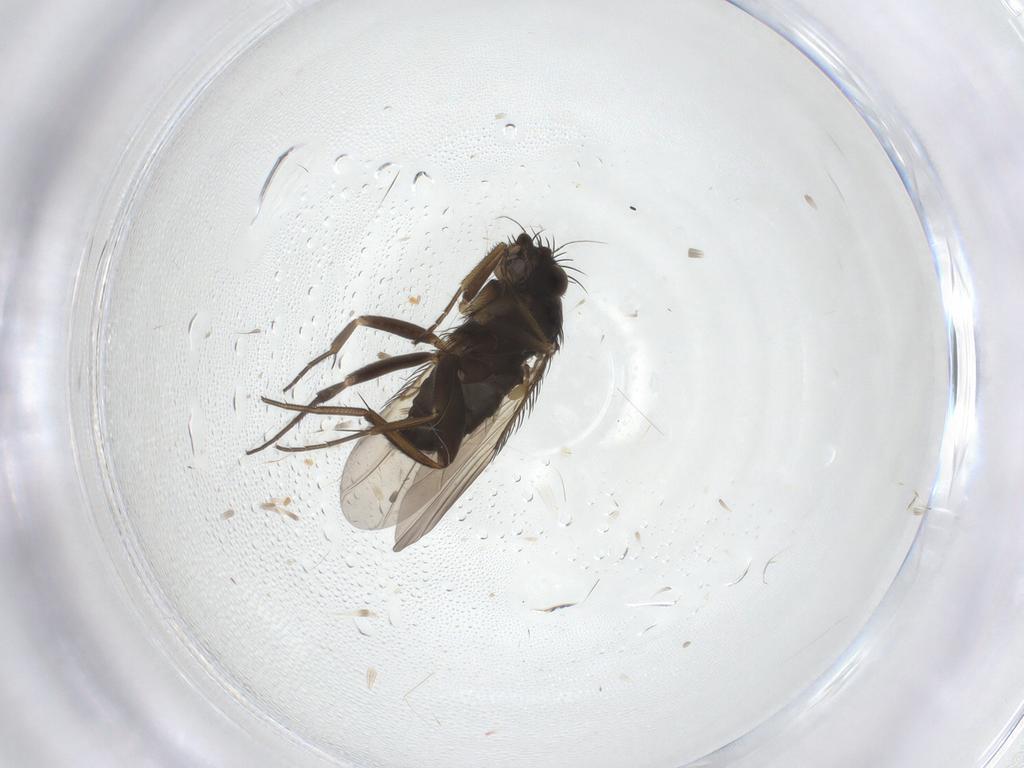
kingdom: Animalia
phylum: Arthropoda
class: Insecta
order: Diptera
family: Phoridae
